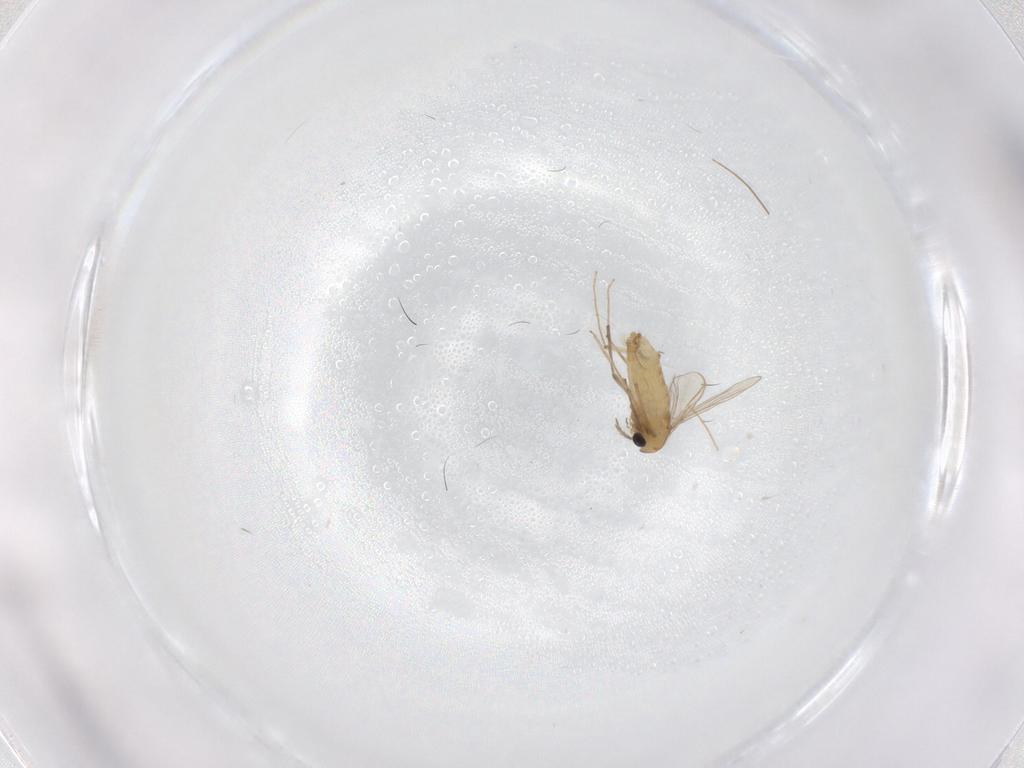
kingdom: Animalia
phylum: Arthropoda
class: Insecta
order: Diptera
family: Chironomidae
